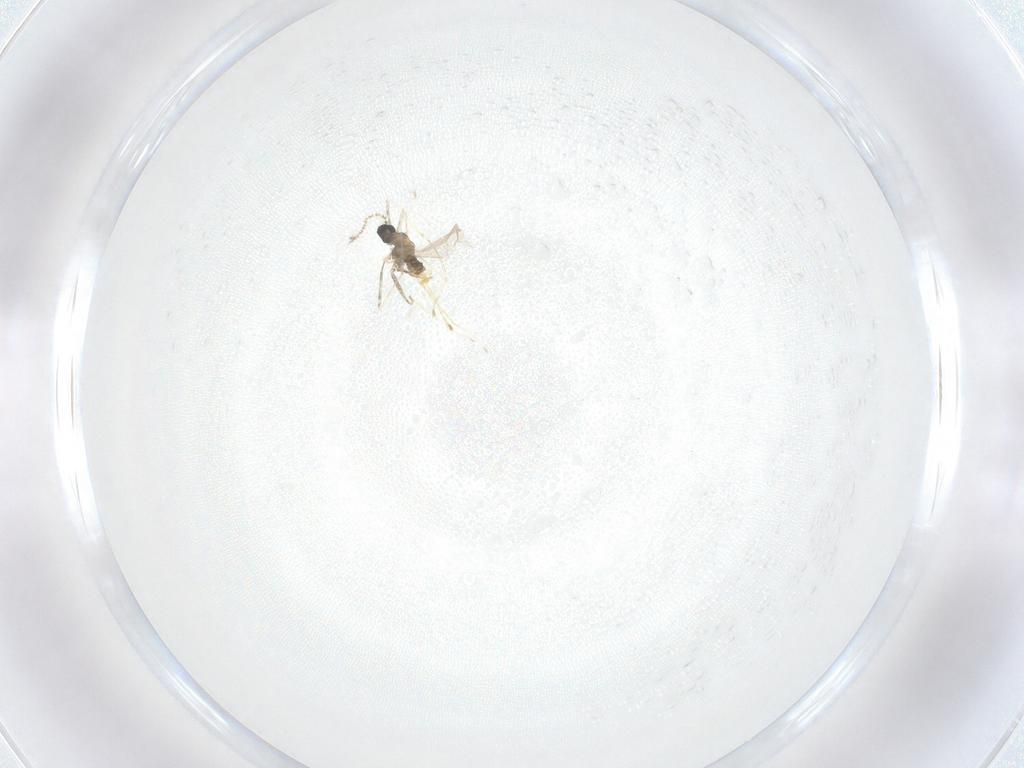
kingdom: Animalia
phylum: Arthropoda
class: Insecta
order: Diptera
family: Cecidomyiidae
